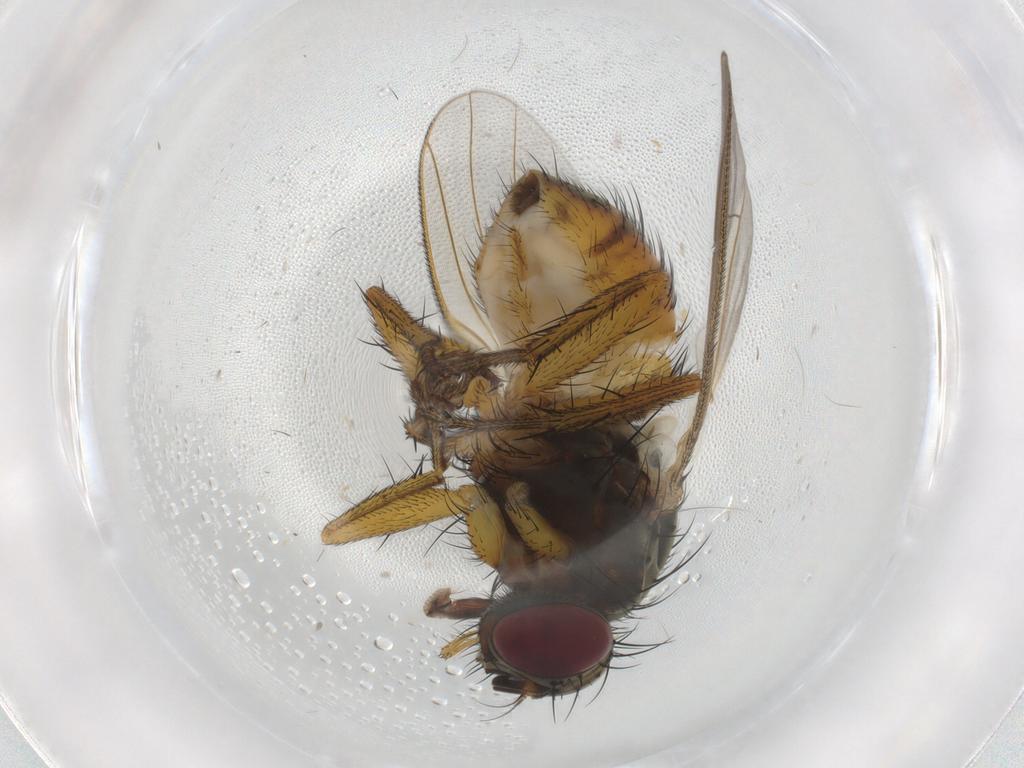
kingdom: Animalia
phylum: Arthropoda
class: Insecta
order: Diptera
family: Muscidae
